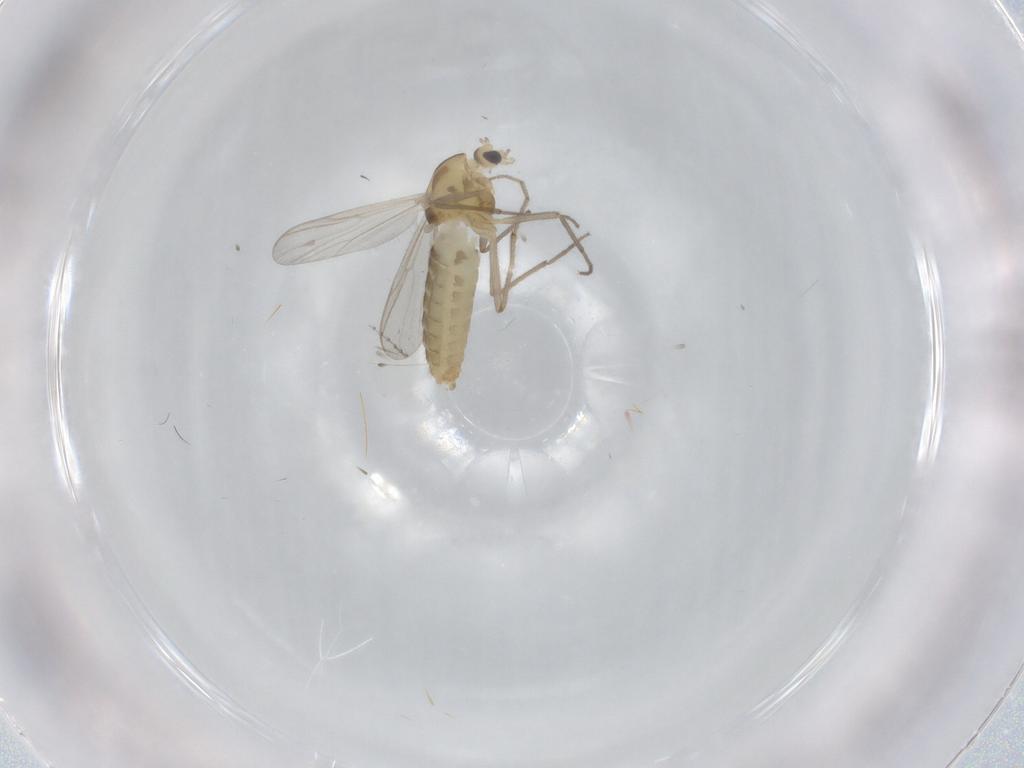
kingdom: Animalia
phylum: Arthropoda
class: Insecta
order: Diptera
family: Chironomidae
